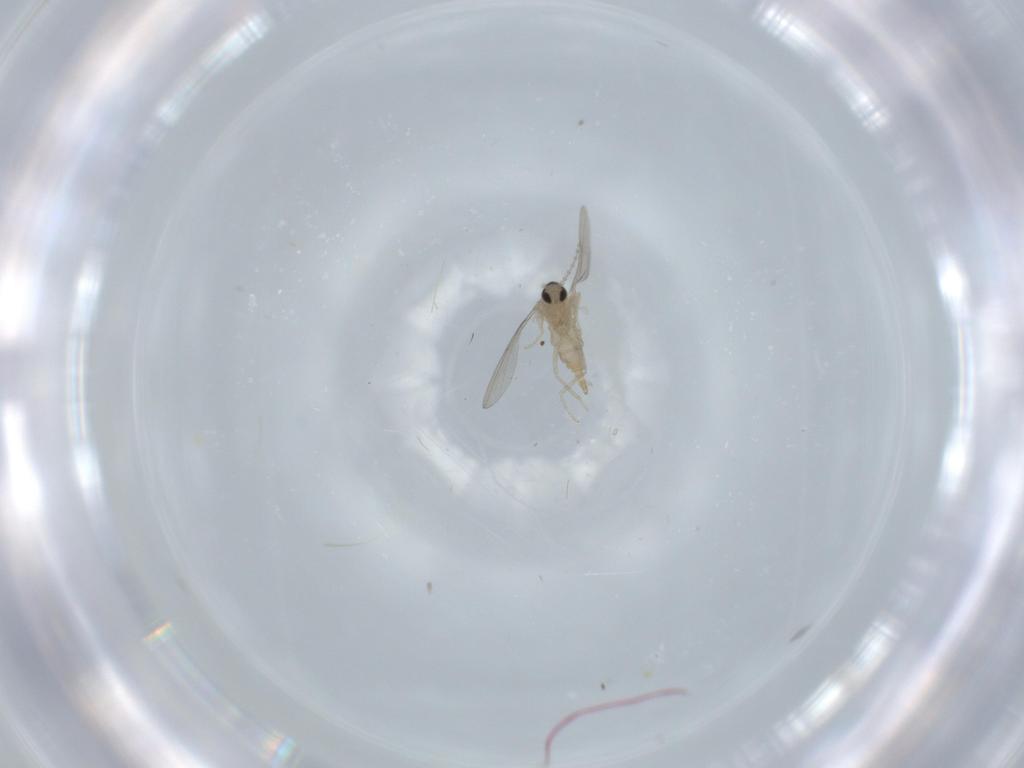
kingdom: Animalia
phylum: Arthropoda
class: Insecta
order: Diptera
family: Cecidomyiidae
